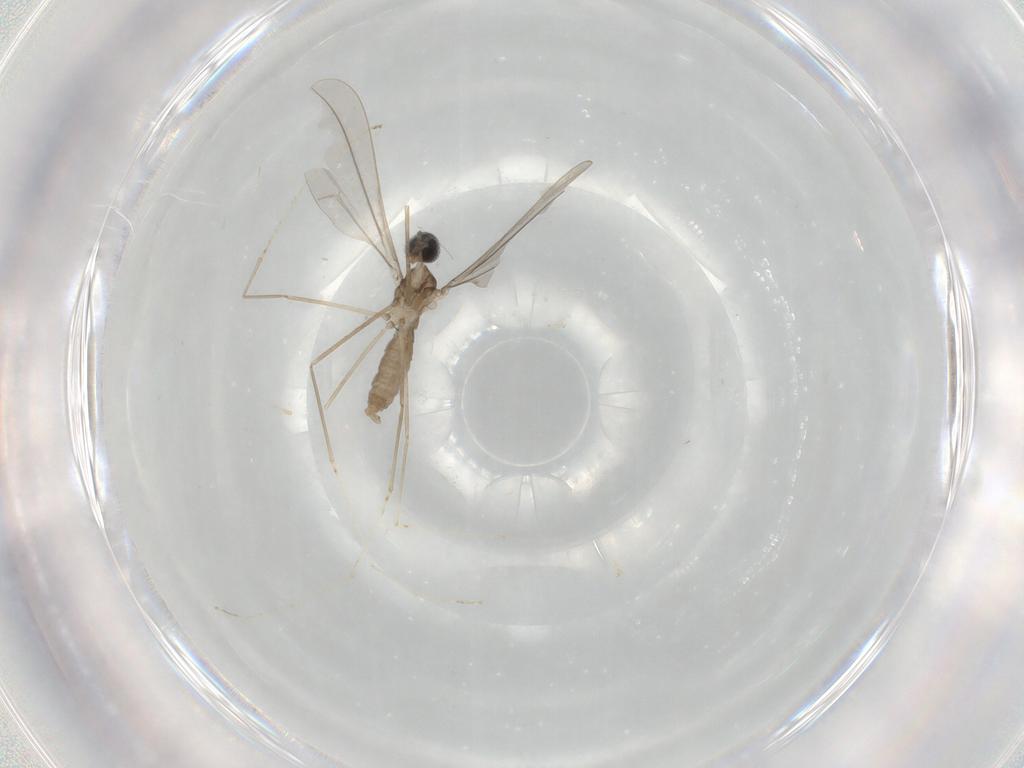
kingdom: Animalia
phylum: Arthropoda
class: Insecta
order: Diptera
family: Cecidomyiidae
